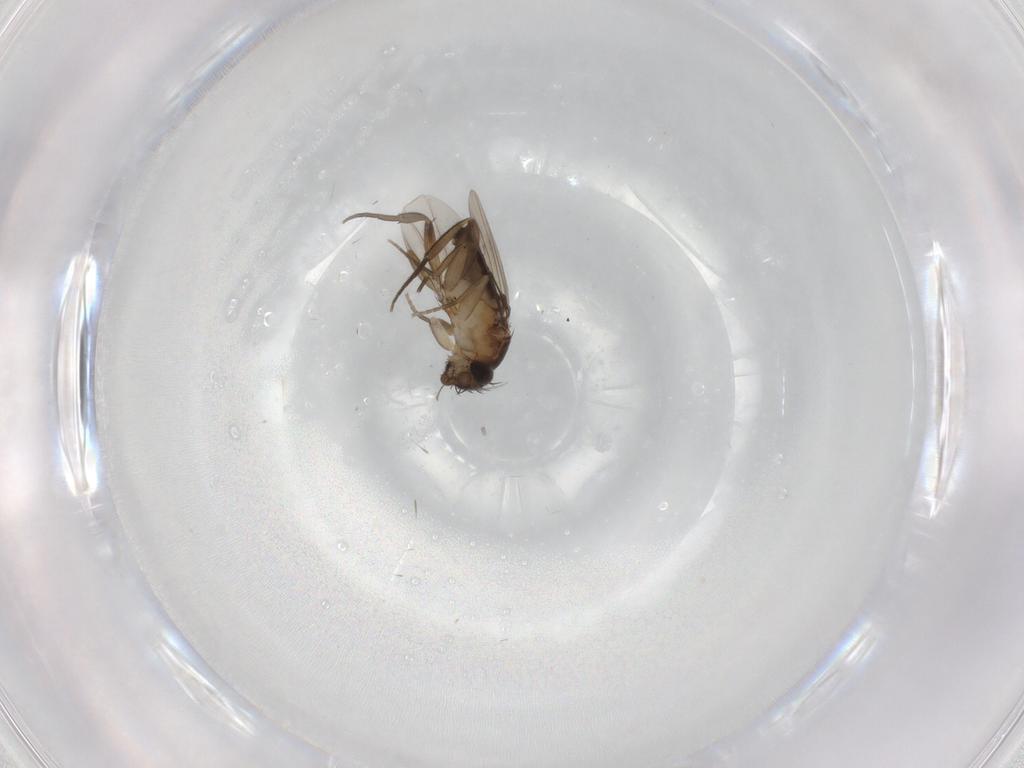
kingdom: Animalia
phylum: Arthropoda
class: Insecta
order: Diptera
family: Phoridae
